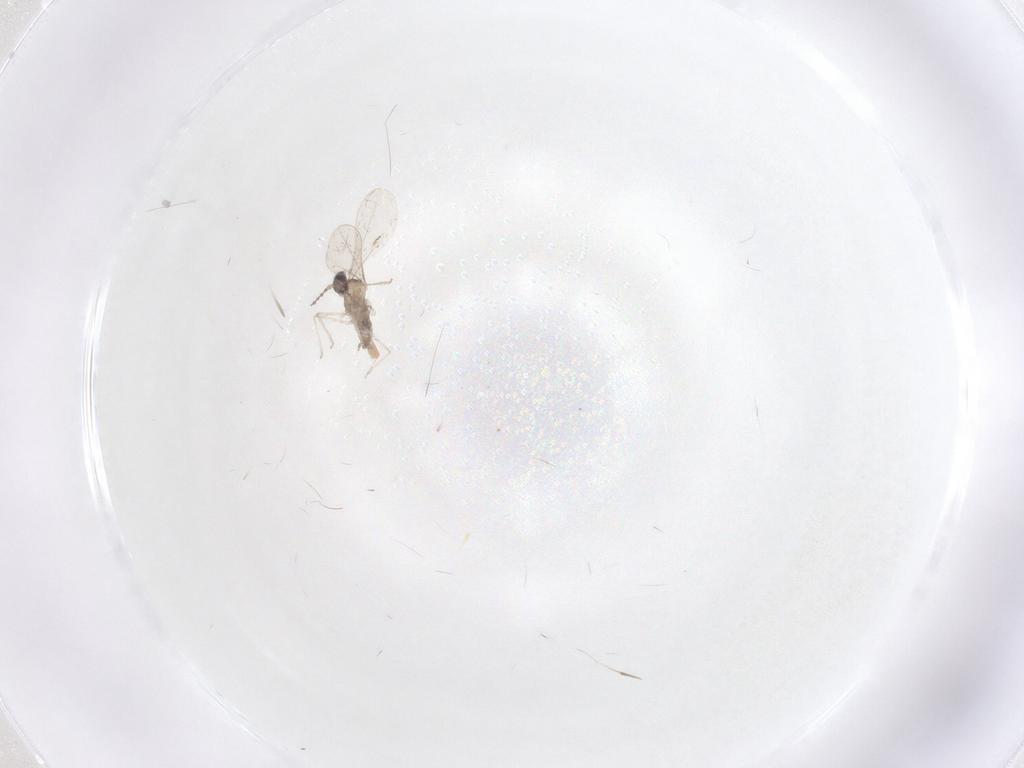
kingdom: Animalia
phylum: Arthropoda
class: Insecta
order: Diptera
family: Cecidomyiidae
